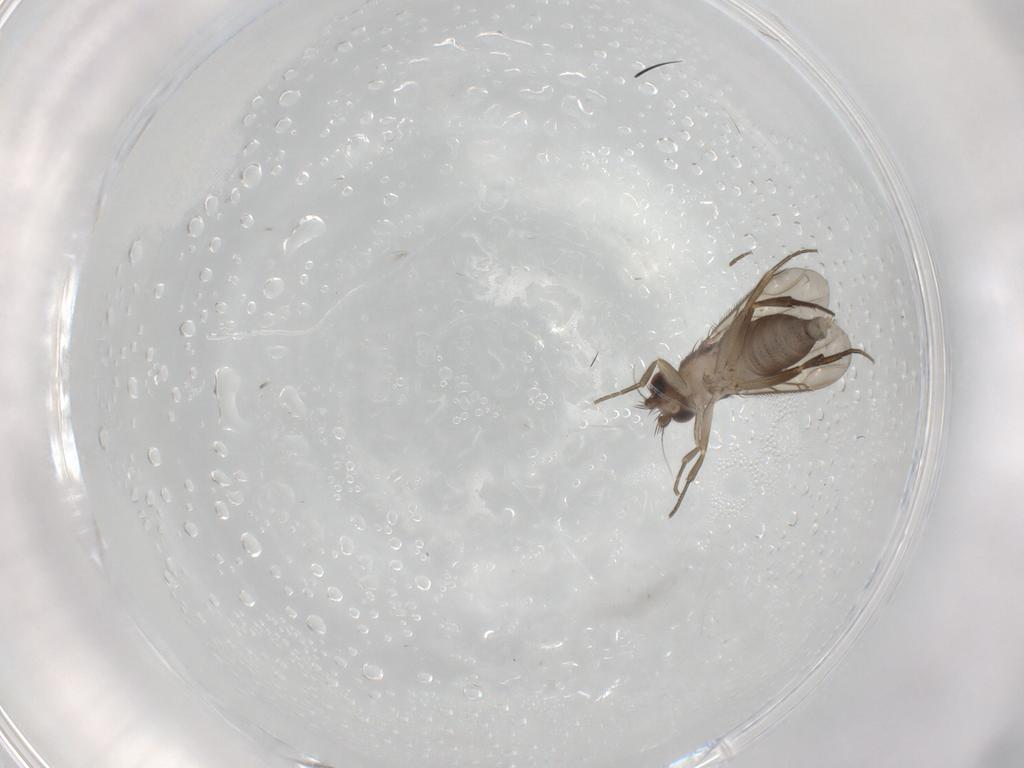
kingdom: Animalia
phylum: Arthropoda
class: Insecta
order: Diptera
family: Phoridae
